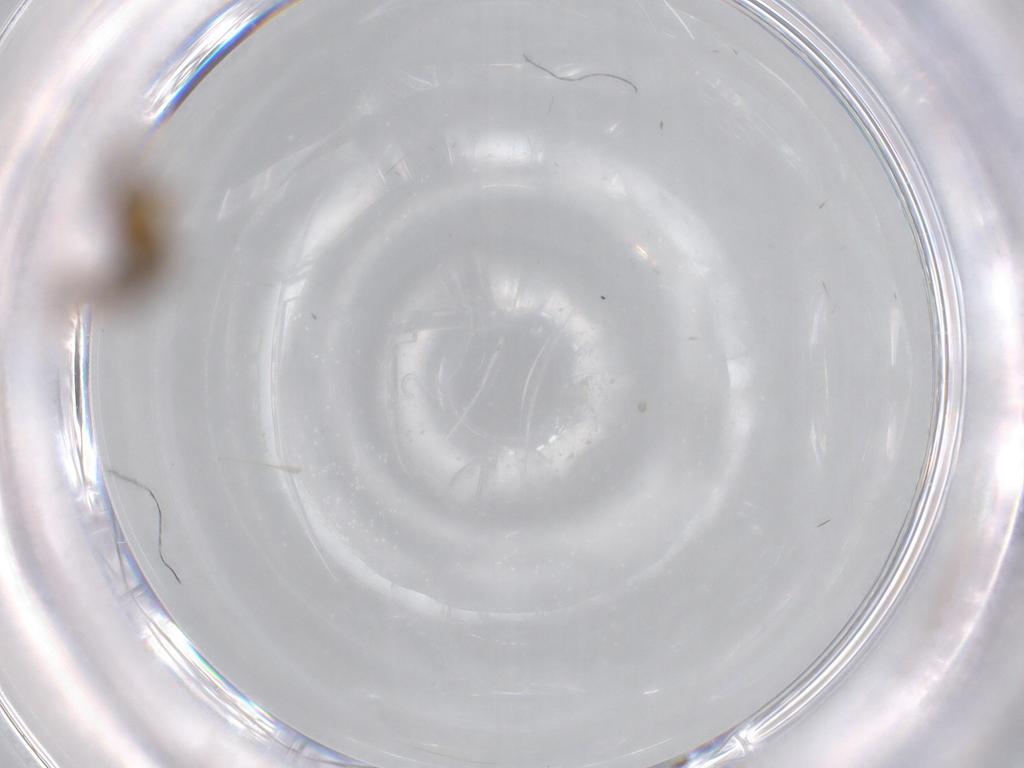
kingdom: Animalia
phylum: Arthropoda
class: Insecta
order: Diptera
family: Sciaridae
